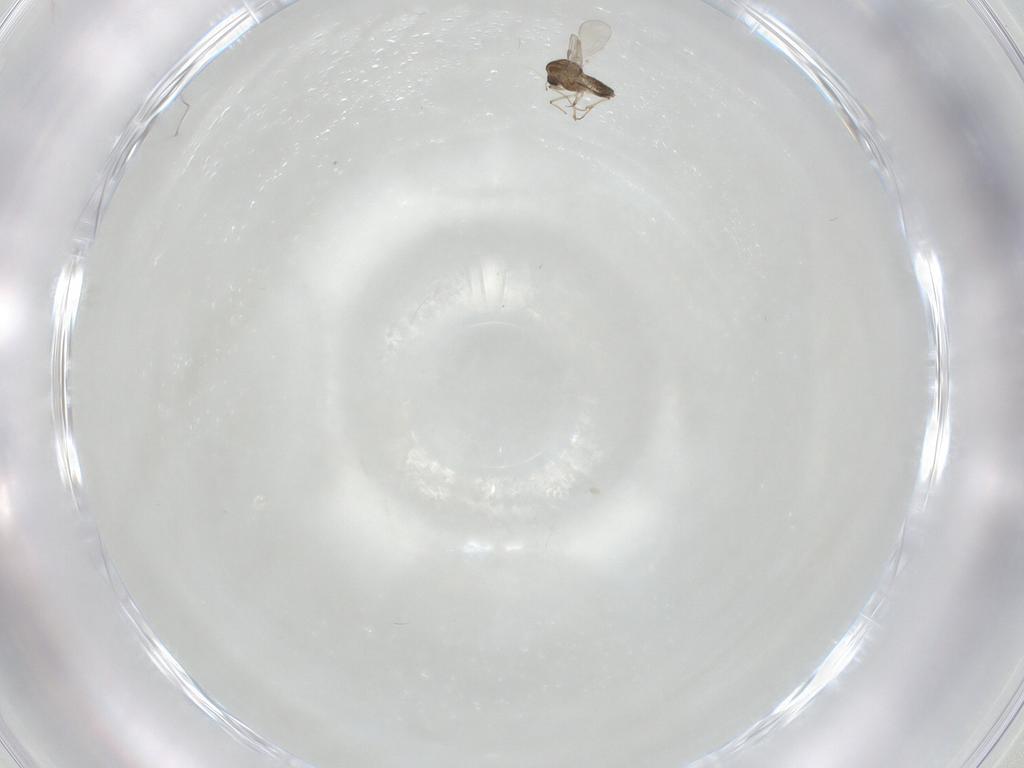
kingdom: Animalia
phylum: Arthropoda
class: Insecta
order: Diptera
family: Chironomidae
